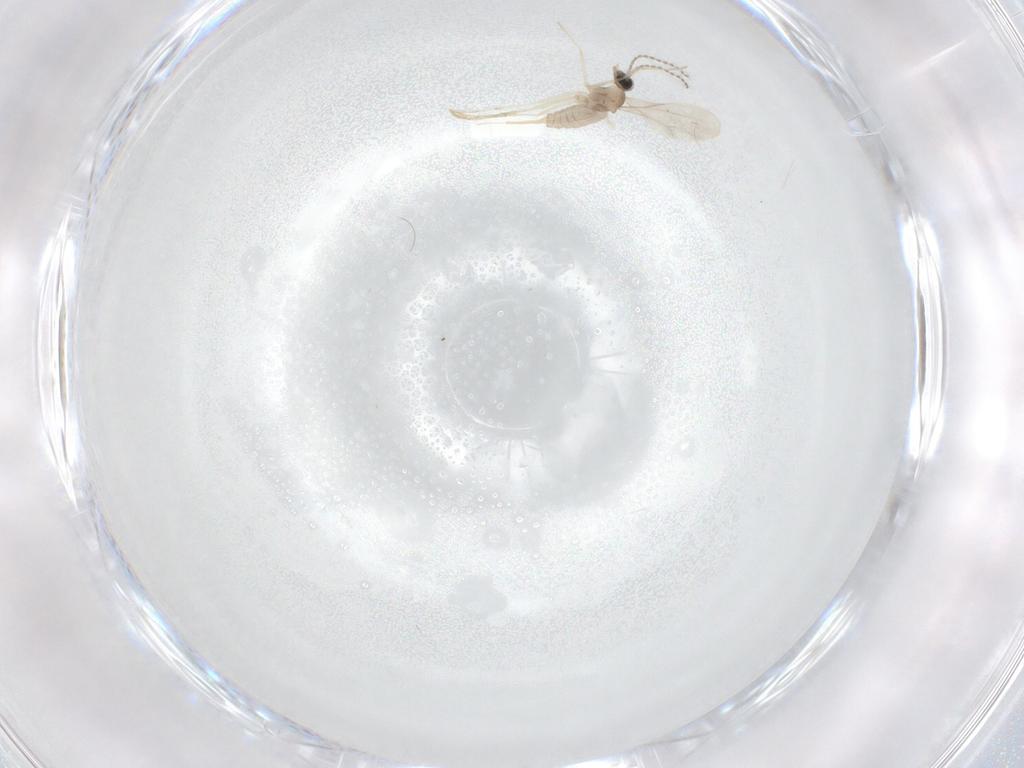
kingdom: Animalia
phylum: Arthropoda
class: Insecta
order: Diptera
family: Cecidomyiidae
